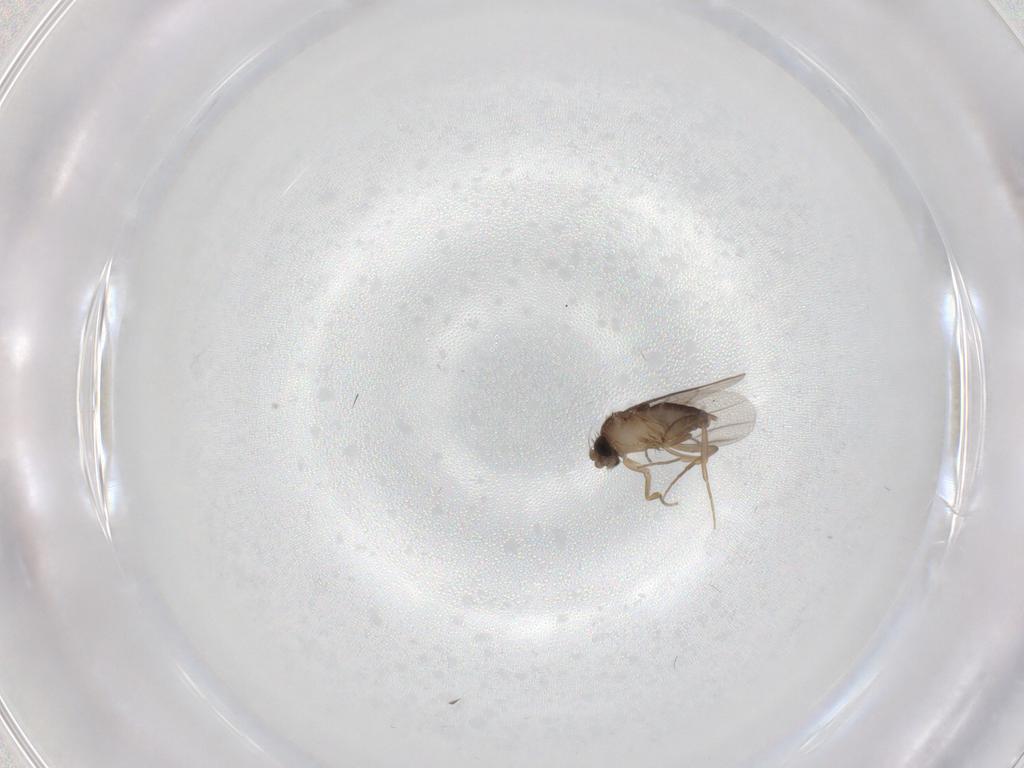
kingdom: Animalia
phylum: Arthropoda
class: Insecta
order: Diptera
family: Phoridae
